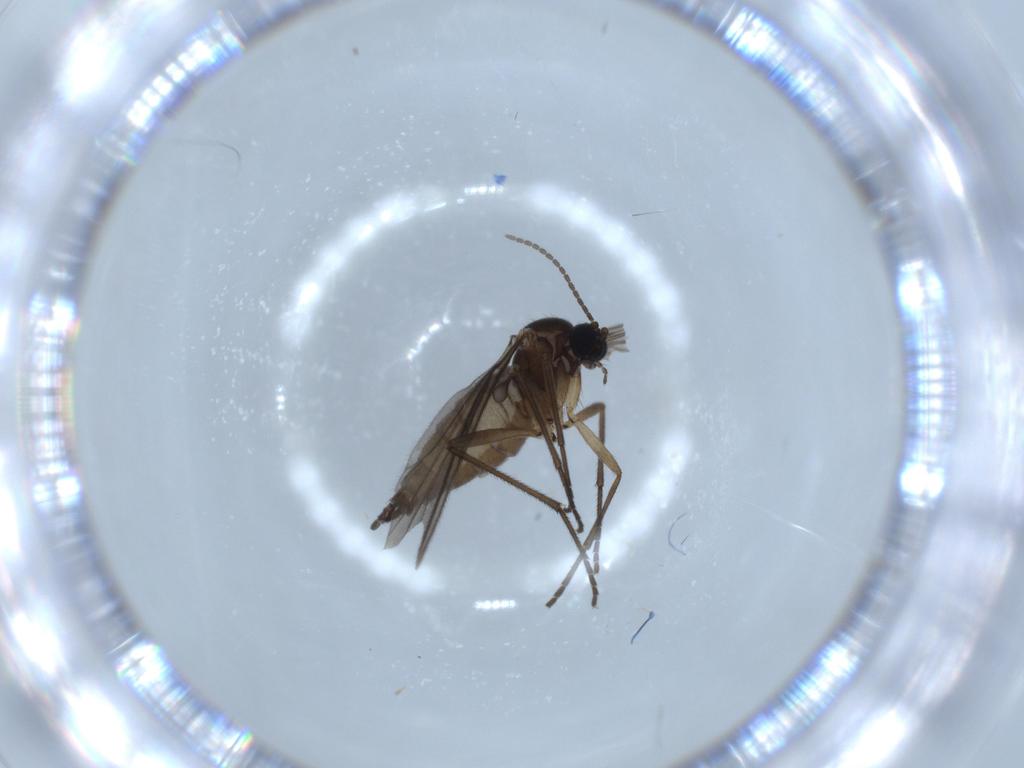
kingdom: Animalia
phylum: Arthropoda
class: Insecta
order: Diptera
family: Sciaridae
